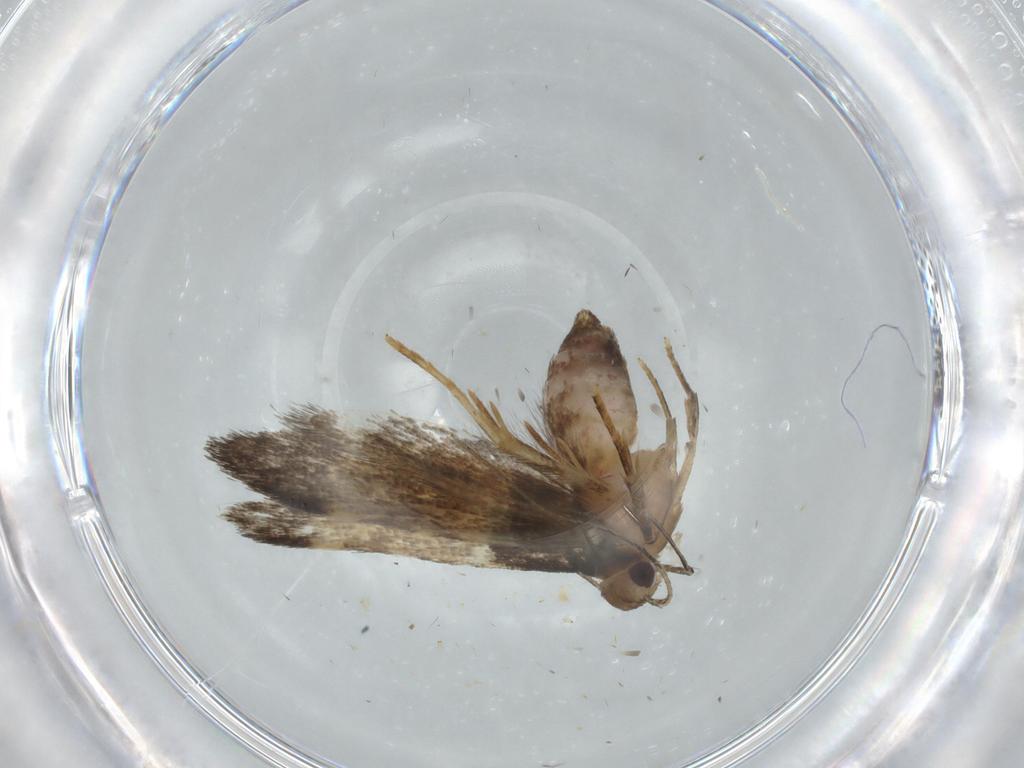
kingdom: Animalia
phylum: Arthropoda
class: Insecta
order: Lepidoptera
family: Cosmopterigidae
